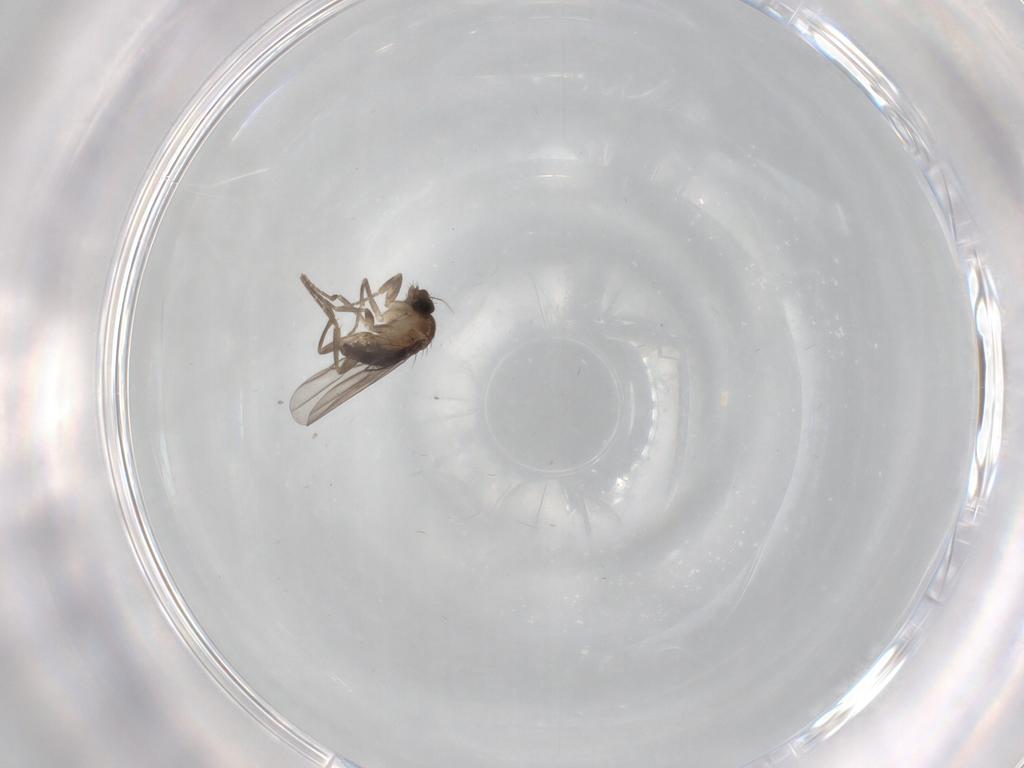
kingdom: Animalia
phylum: Arthropoda
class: Insecta
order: Diptera
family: Phoridae
